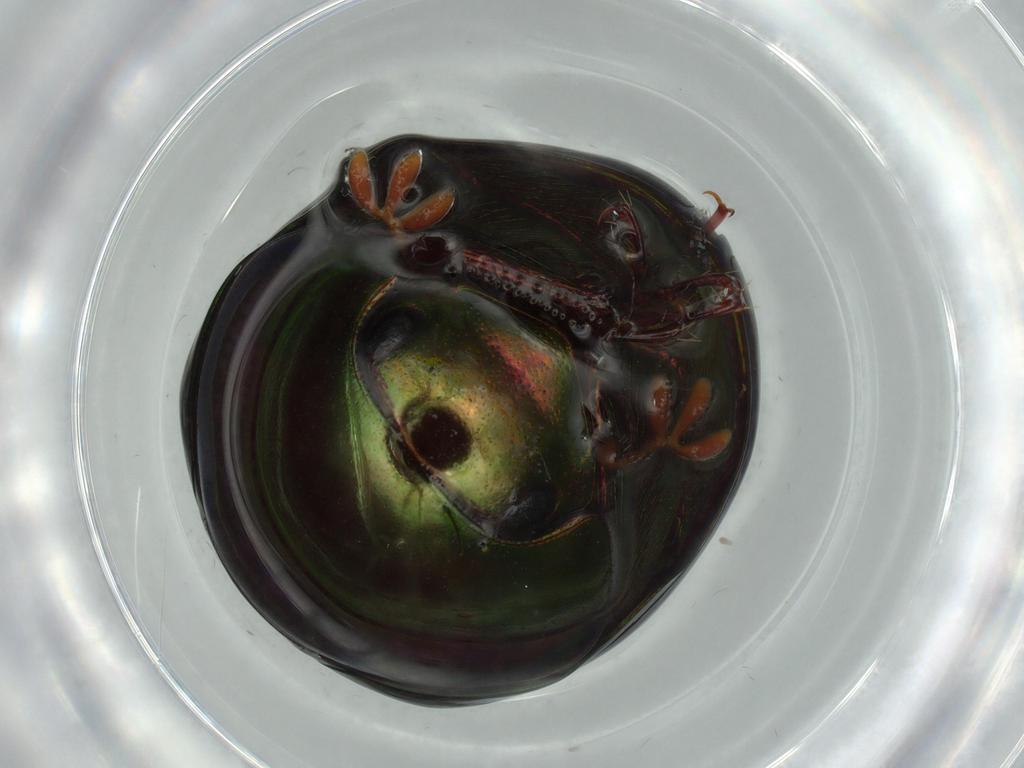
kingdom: Animalia
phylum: Arthropoda
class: Insecta
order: Coleoptera
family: Hybosoridae
